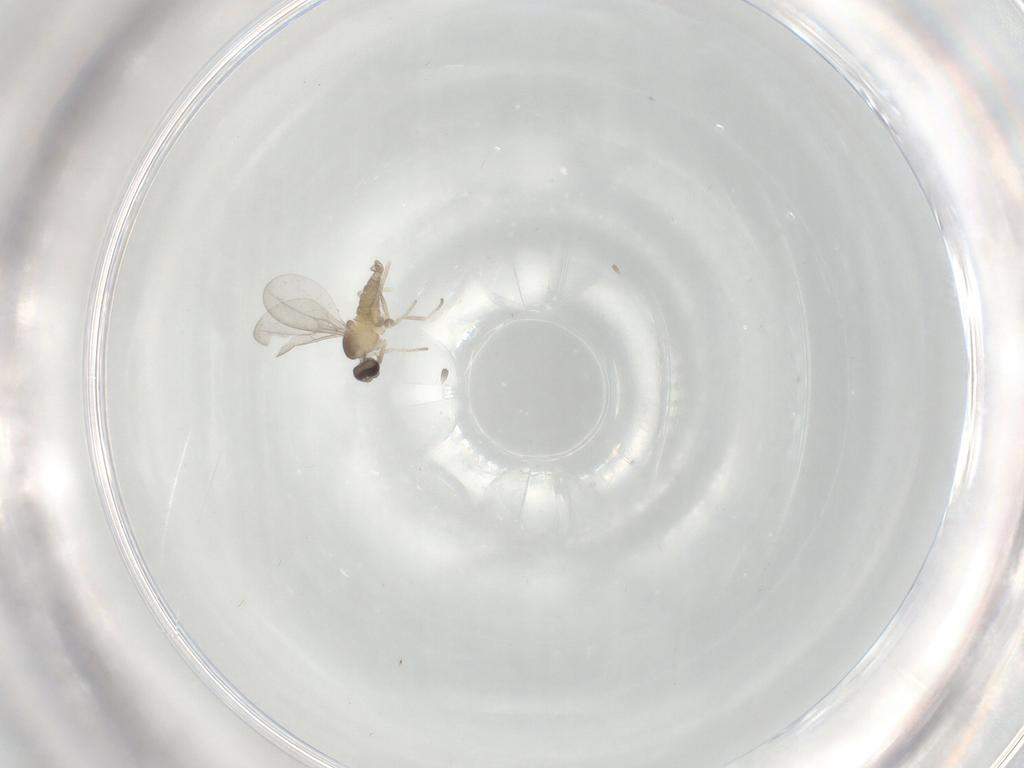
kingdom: Animalia
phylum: Arthropoda
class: Insecta
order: Diptera
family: Cecidomyiidae
